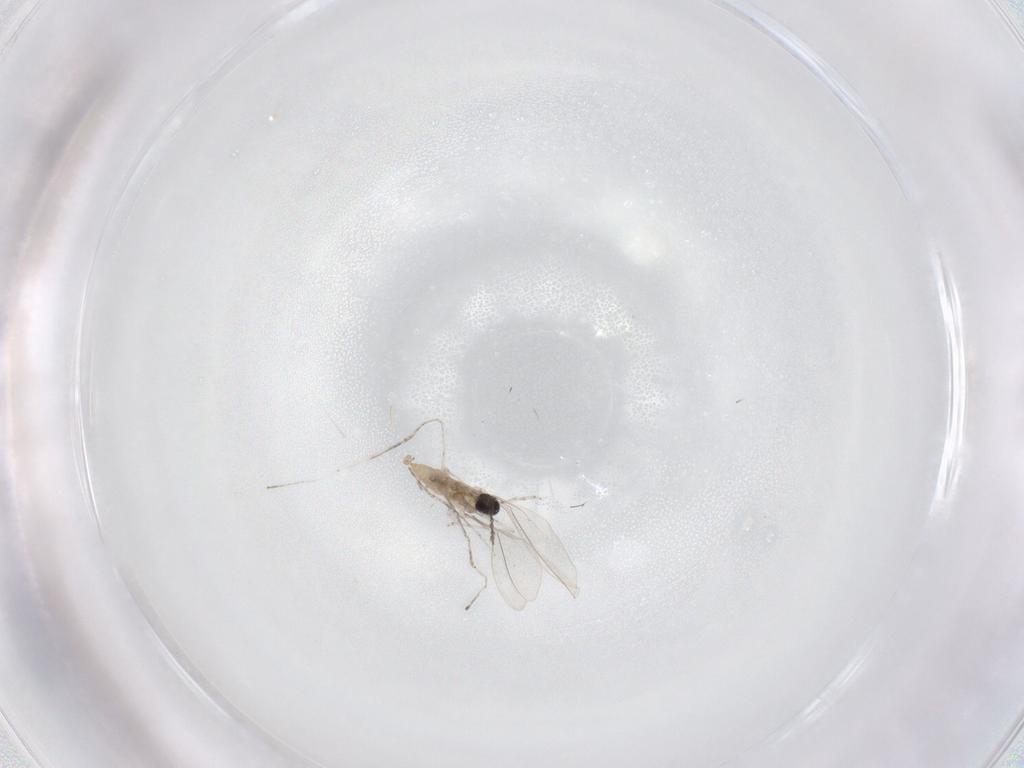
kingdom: Animalia
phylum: Arthropoda
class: Insecta
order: Diptera
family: Cecidomyiidae
